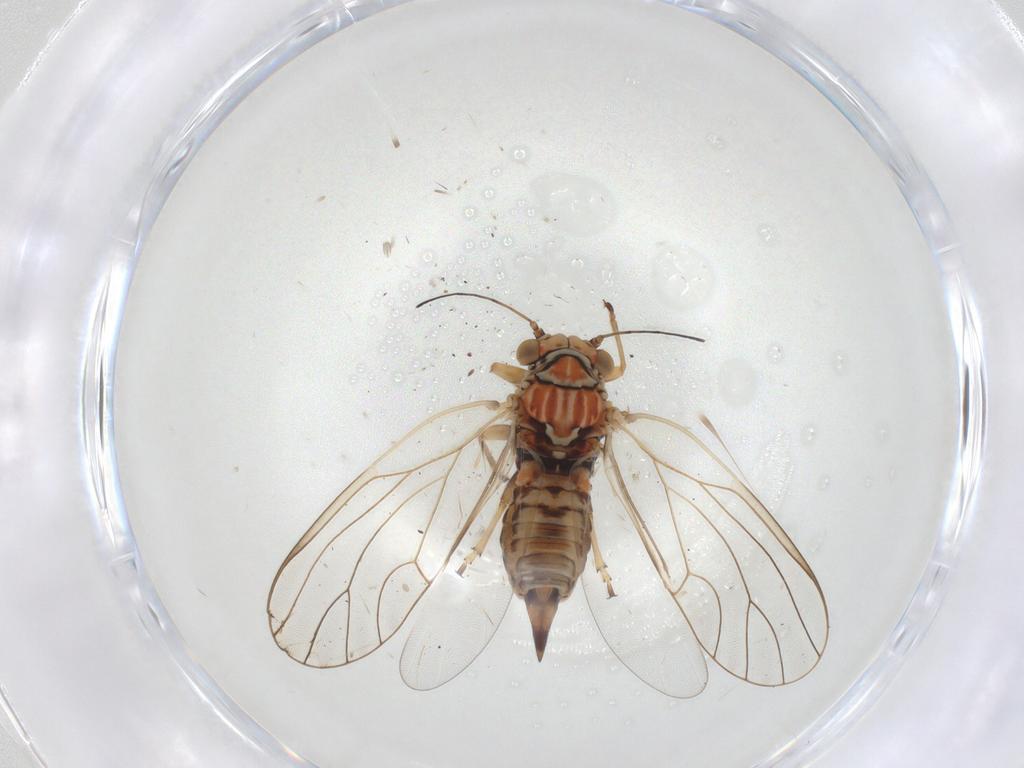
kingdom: Animalia
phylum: Arthropoda
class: Insecta
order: Hemiptera
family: Psyllidae
